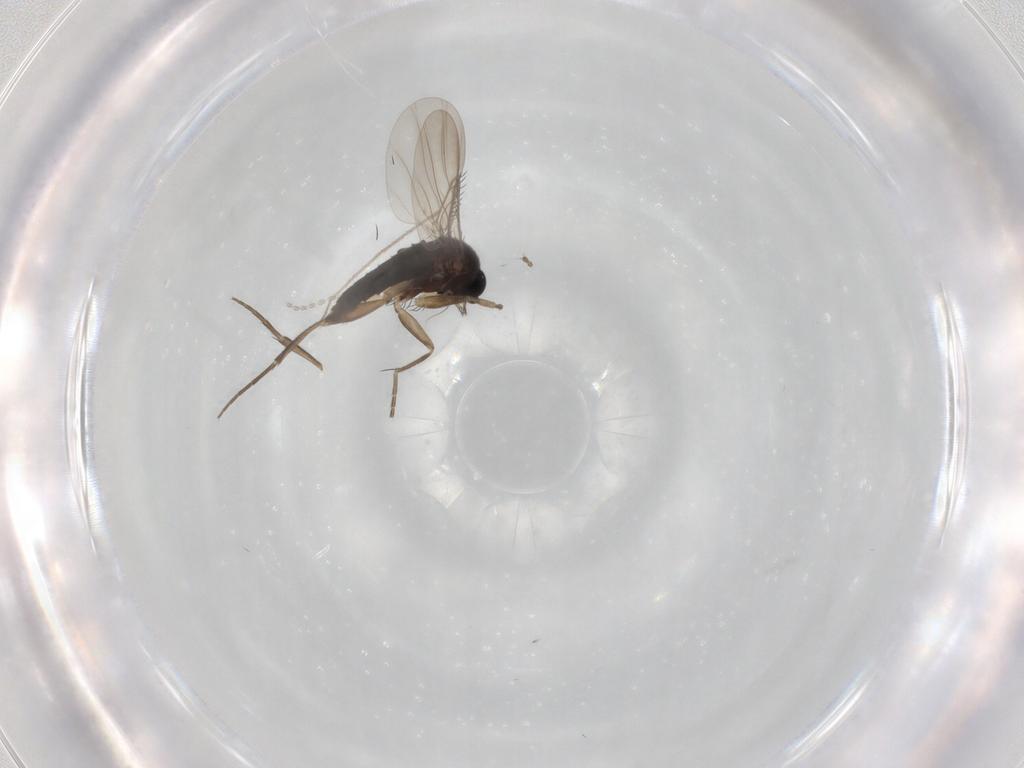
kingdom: Animalia
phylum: Arthropoda
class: Insecta
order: Diptera
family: Phoridae
